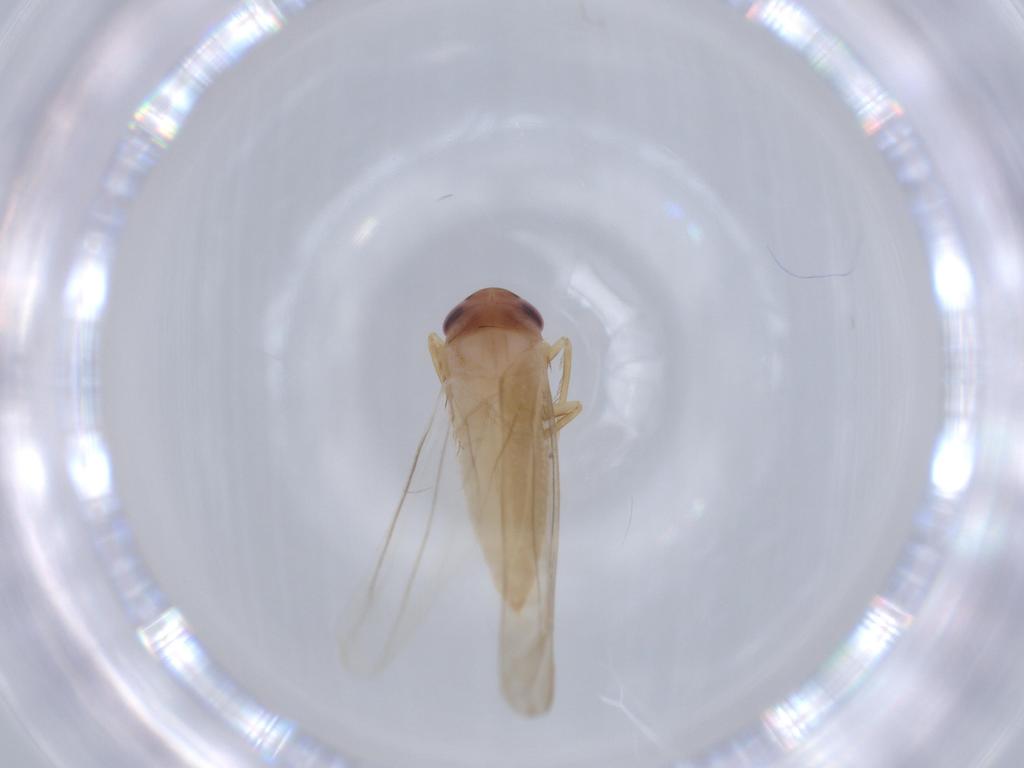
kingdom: Animalia
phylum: Arthropoda
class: Insecta
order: Hemiptera
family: Cicadellidae
